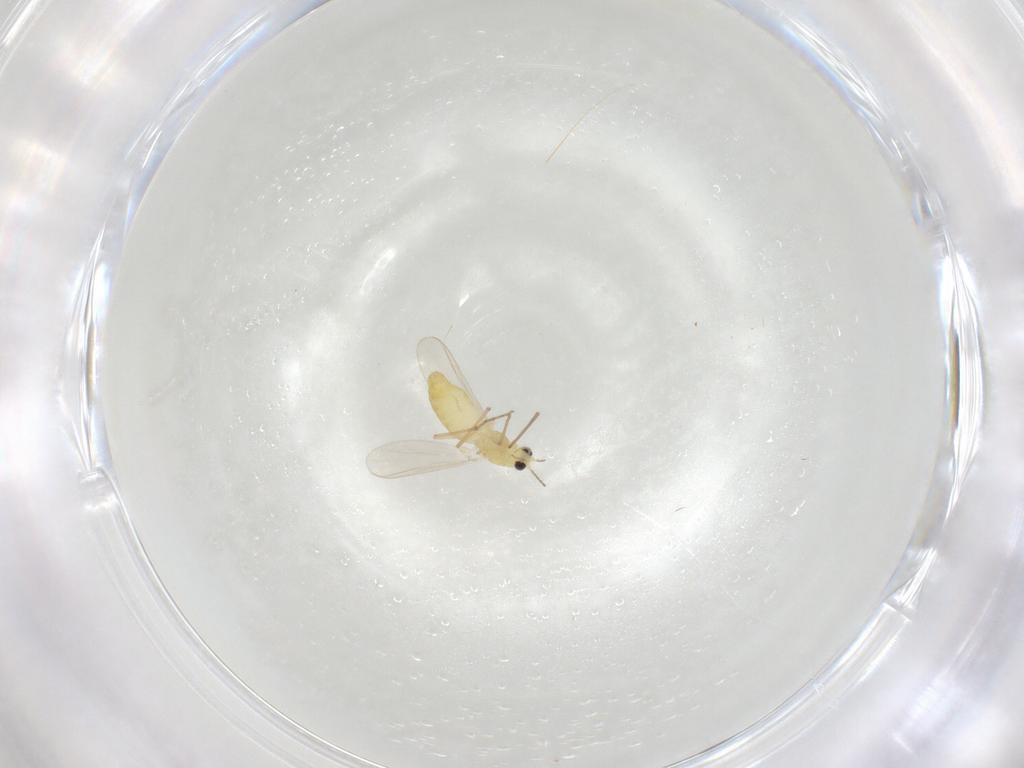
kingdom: Animalia
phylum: Arthropoda
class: Insecta
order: Diptera
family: Chironomidae
